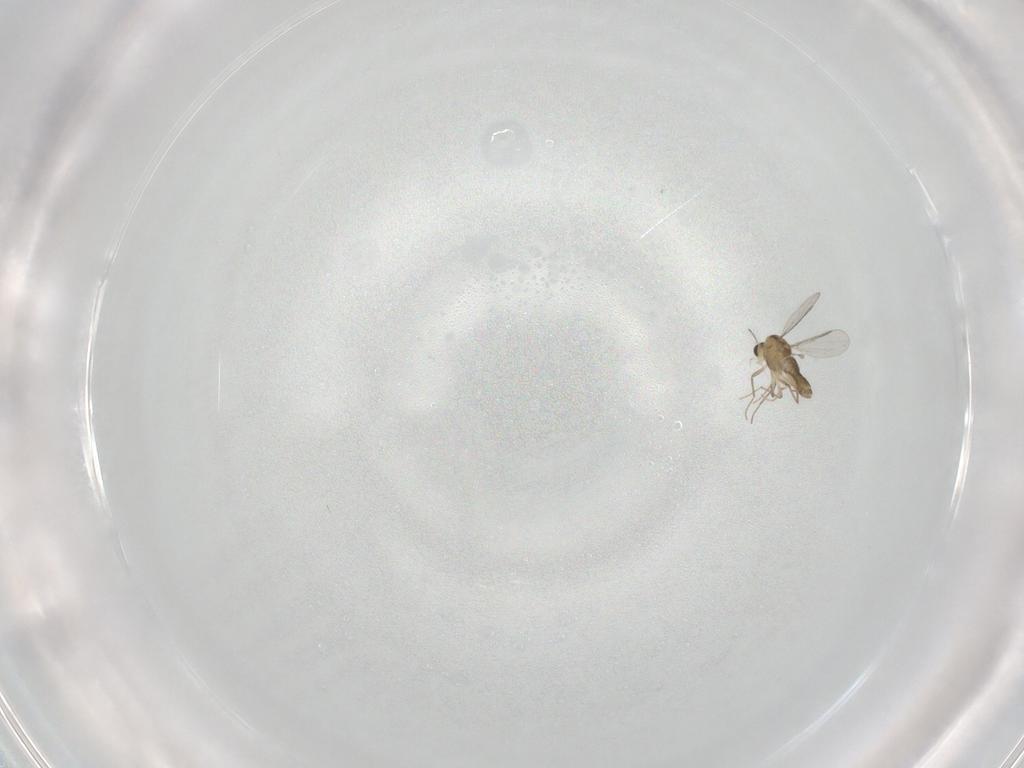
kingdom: Animalia
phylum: Arthropoda
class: Insecta
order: Diptera
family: Chironomidae
